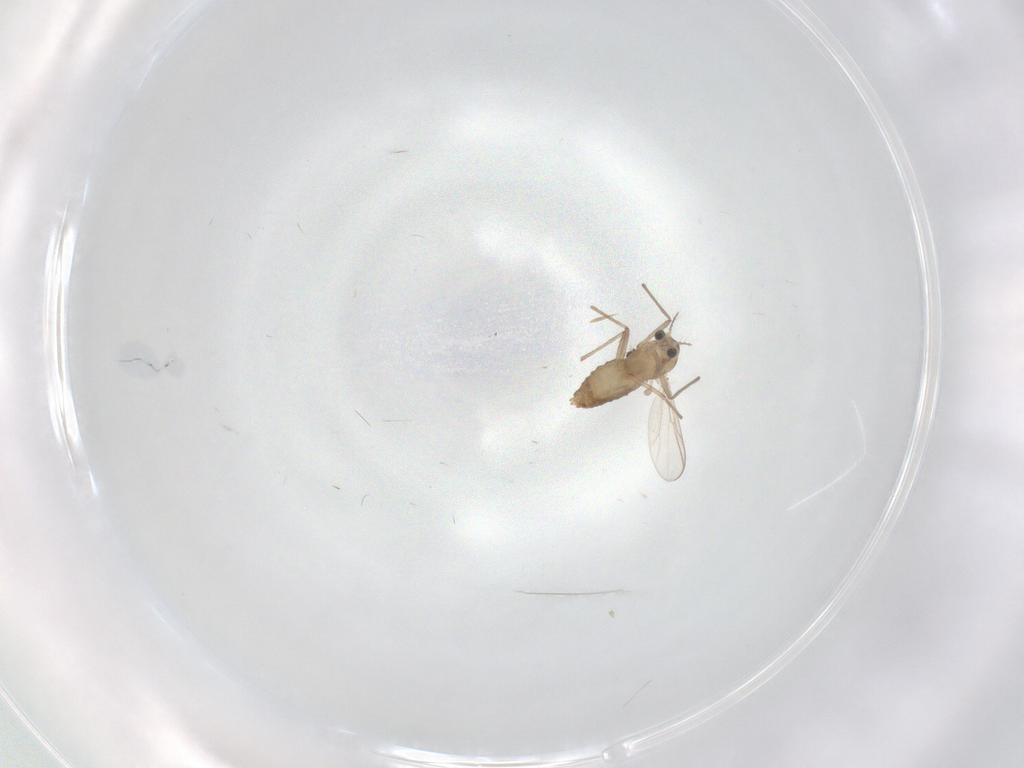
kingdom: Animalia
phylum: Arthropoda
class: Insecta
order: Diptera
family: Chironomidae
